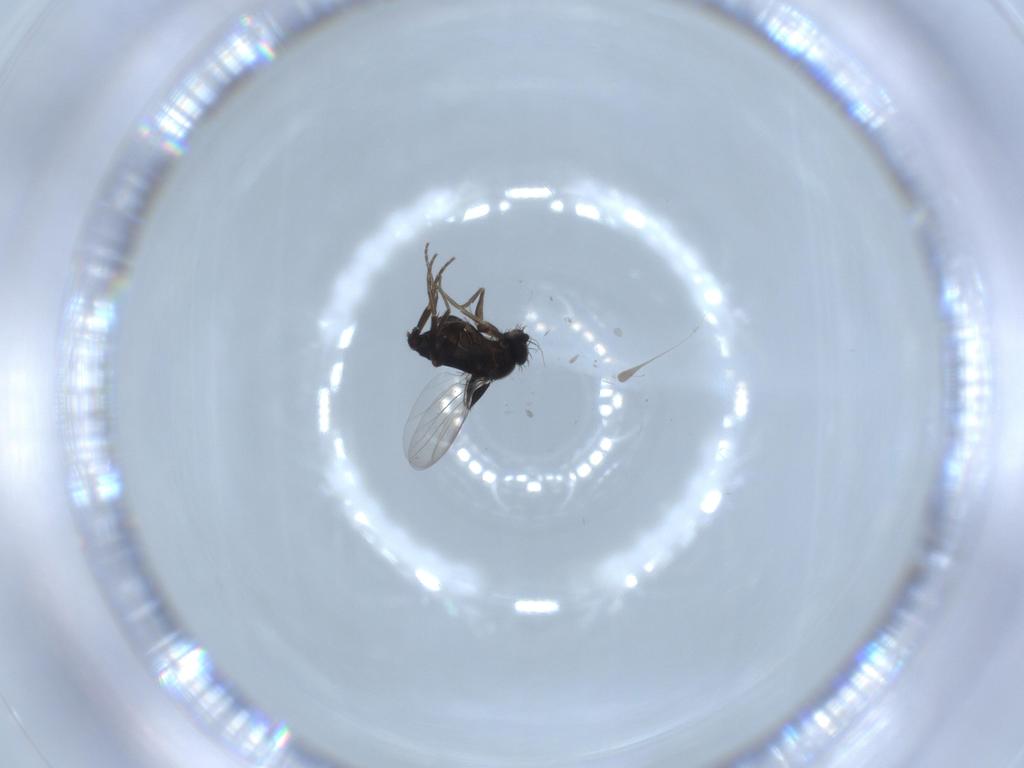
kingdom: Animalia
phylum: Arthropoda
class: Insecta
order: Diptera
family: Phoridae
